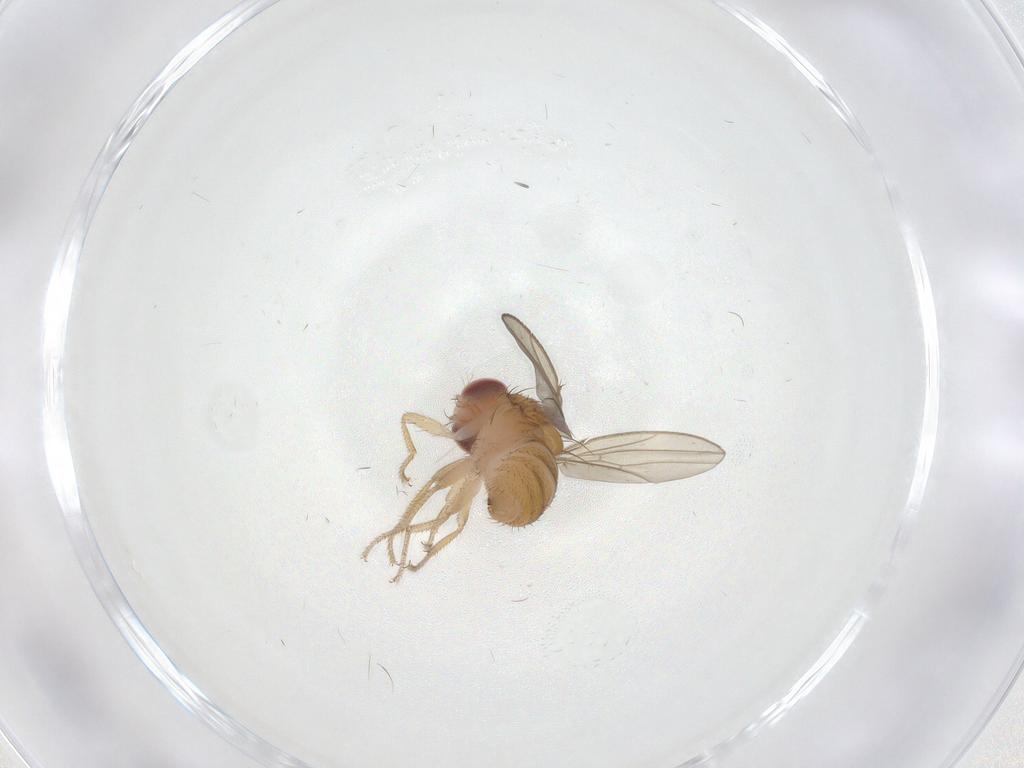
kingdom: Animalia
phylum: Arthropoda
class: Insecta
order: Diptera
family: Drosophilidae
